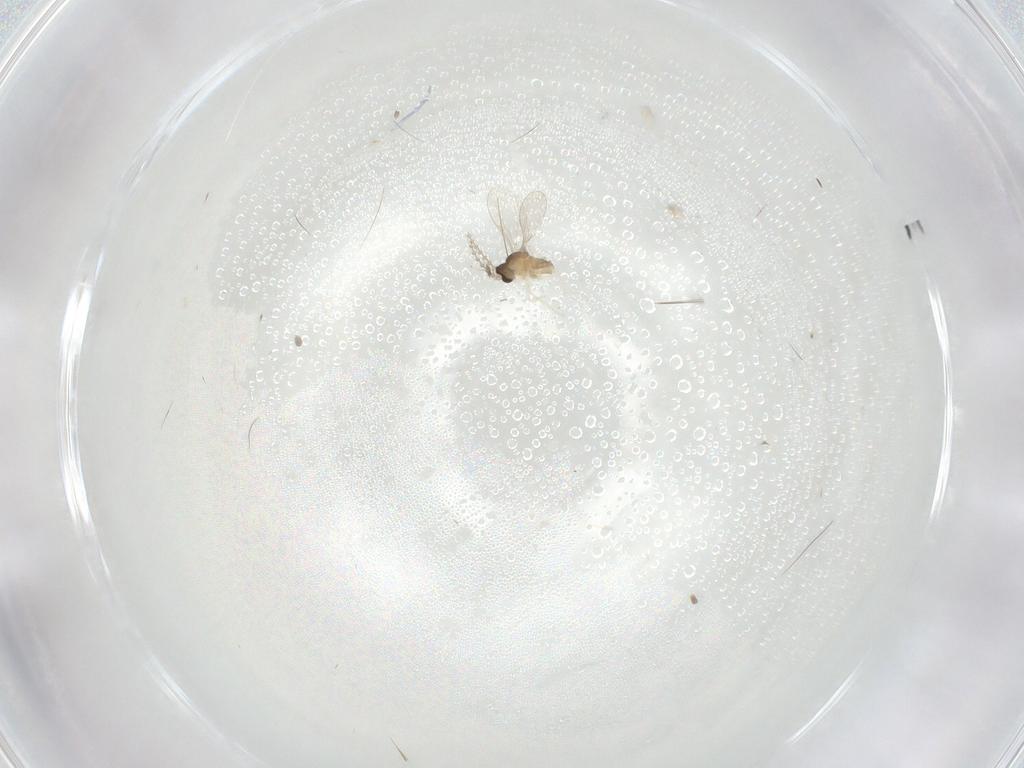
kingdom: Animalia
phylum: Arthropoda
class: Insecta
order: Diptera
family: Cecidomyiidae
